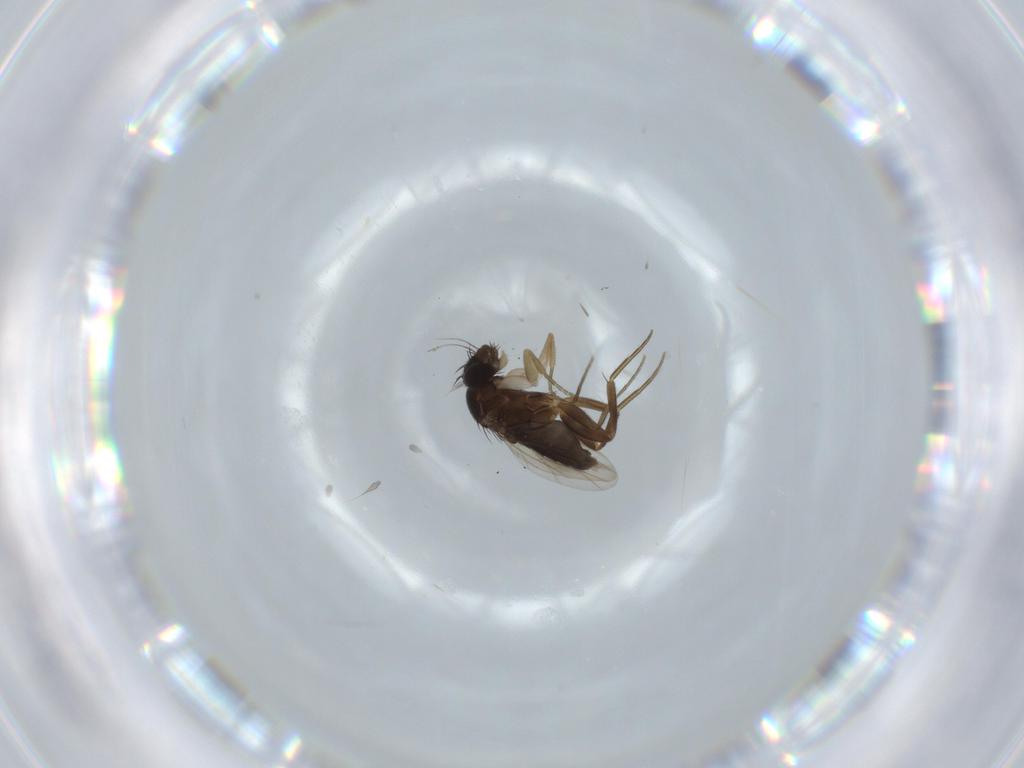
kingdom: Animalia
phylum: Arthropoda
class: Insecta
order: Diptera
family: Phoridae
